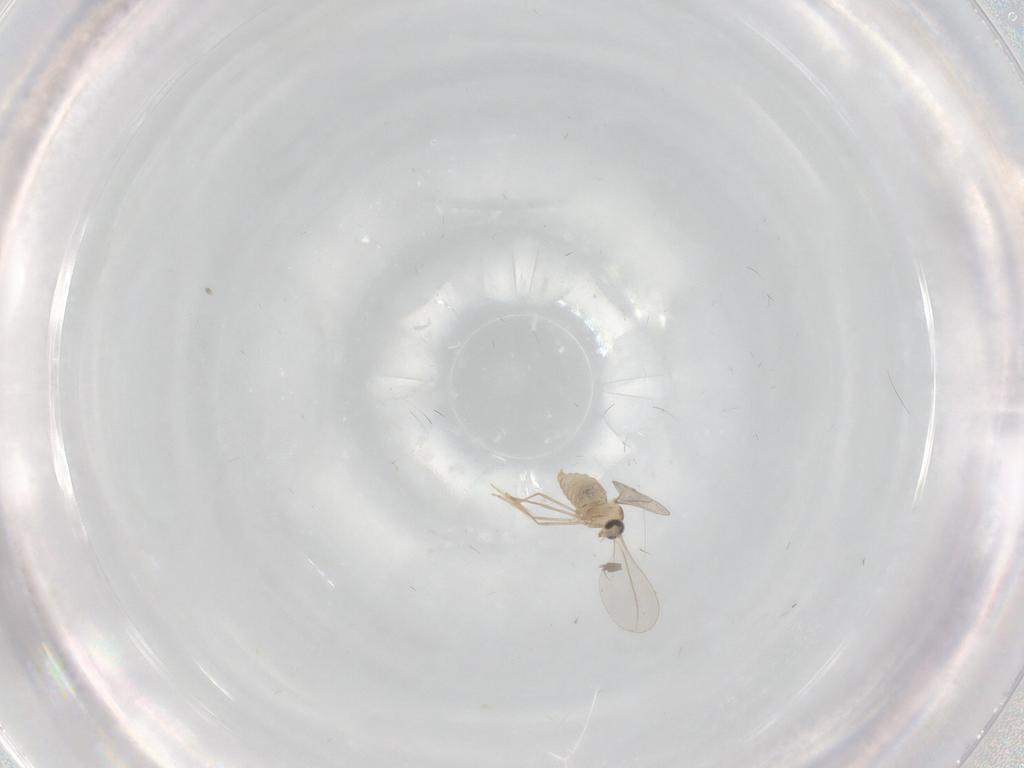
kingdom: Animalia
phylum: Arthropoda
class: Insecta
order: Diptera
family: Cecidomyiidae
